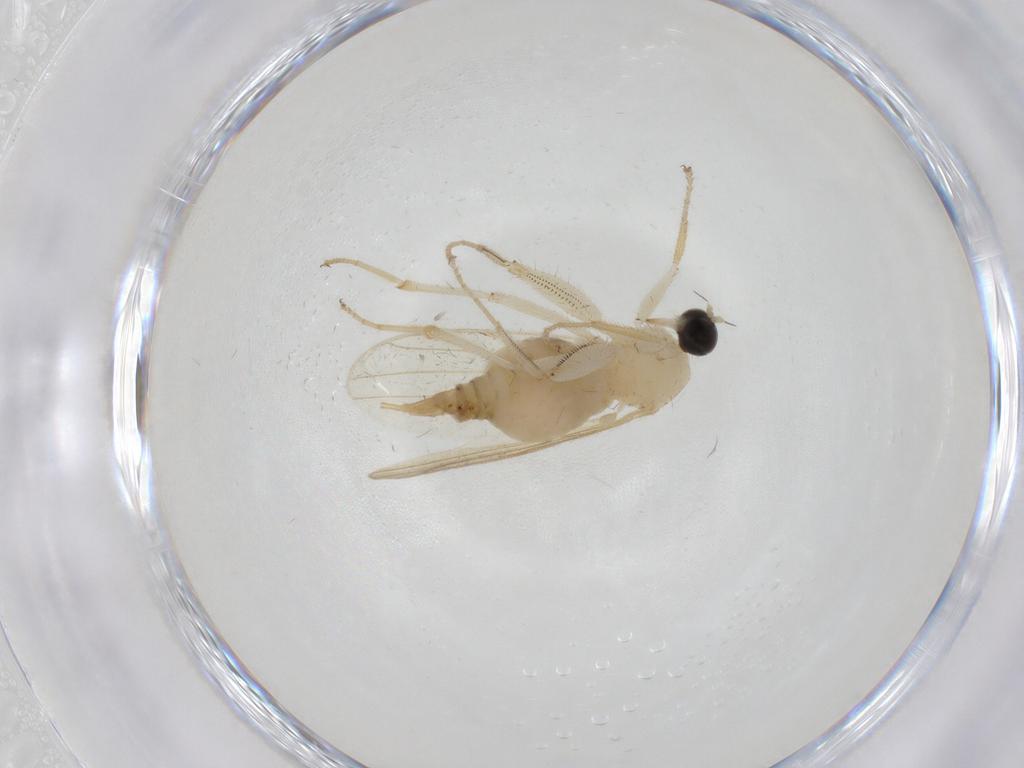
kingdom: Animalia
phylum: Arthropoda
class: Insecta
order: Diptera
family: Hybotidae
